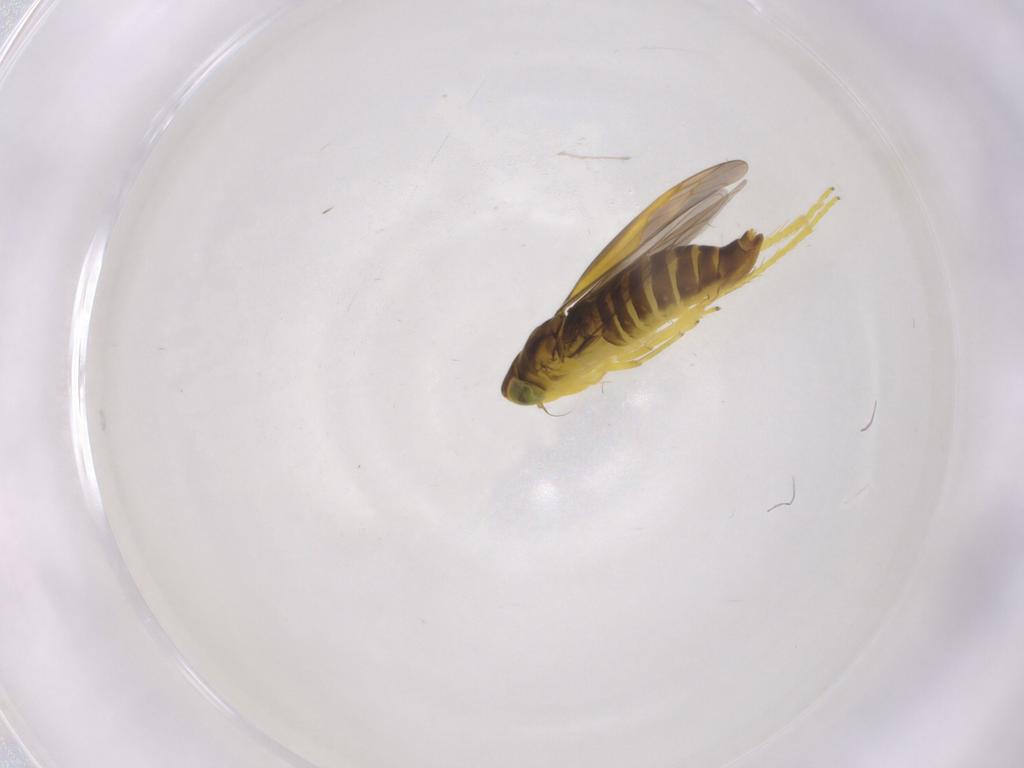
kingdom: Animalia
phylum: Arthropoda
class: Insecta
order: Hemiptera
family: Cicadellidae
